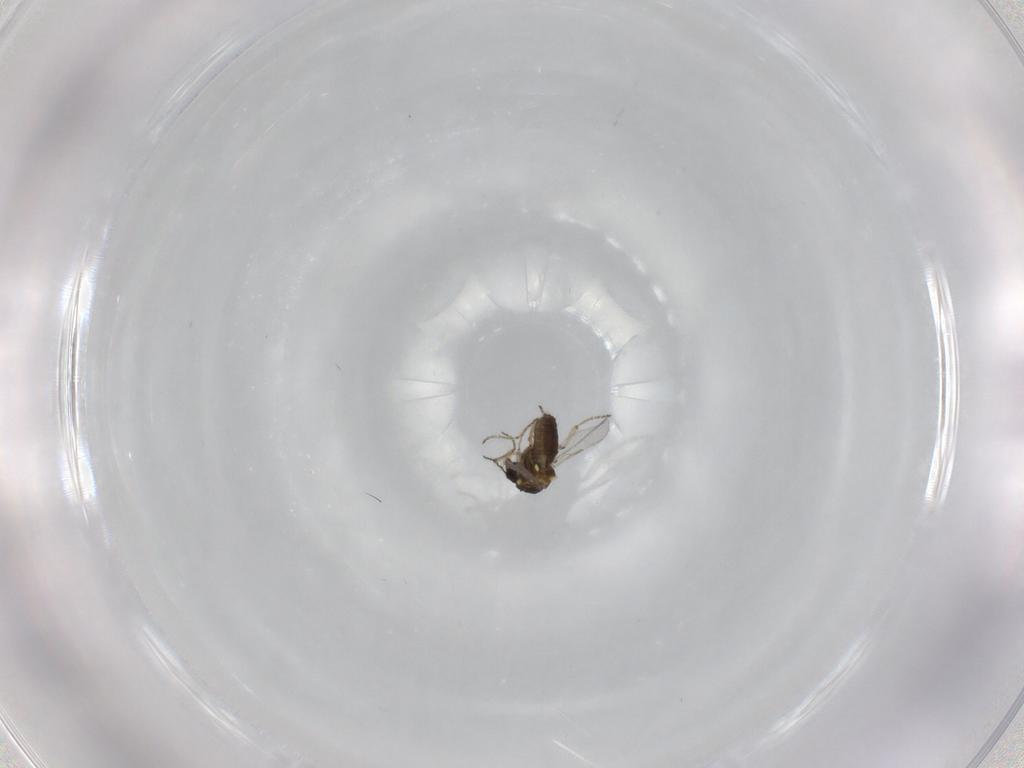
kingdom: Animalia
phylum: Arthropoda
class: Insecta
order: Diptera
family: Ceratopogonidae
